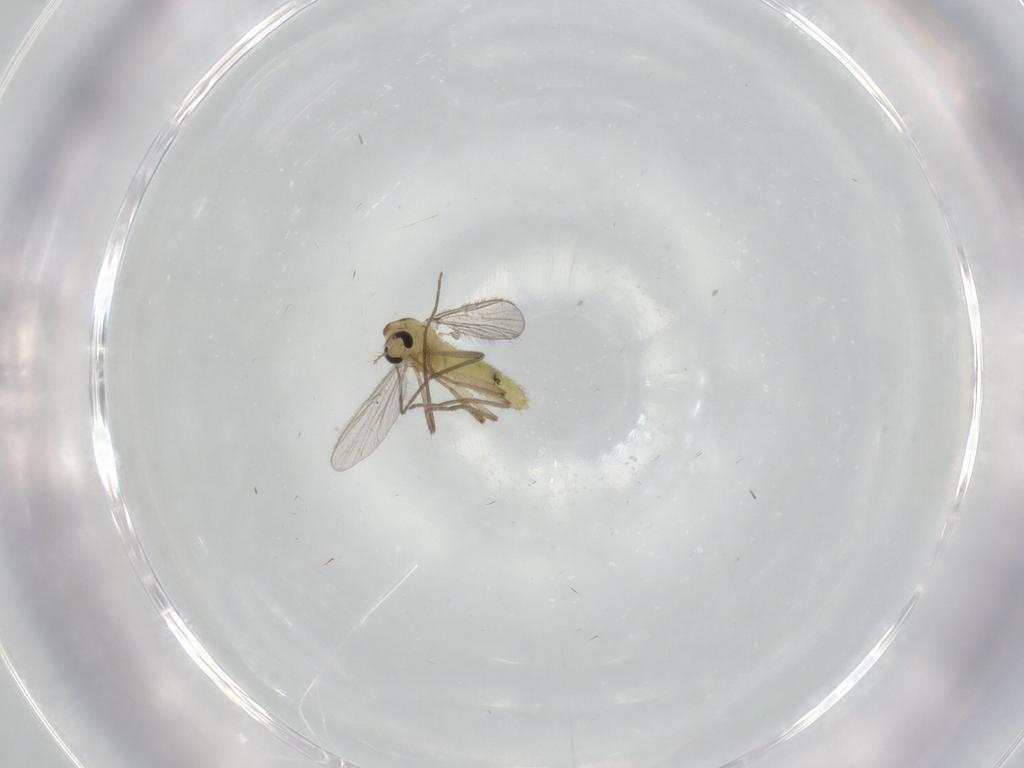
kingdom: Animalia
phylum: Arthropoda
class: Insecta
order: Diptera
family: Chironomidae
